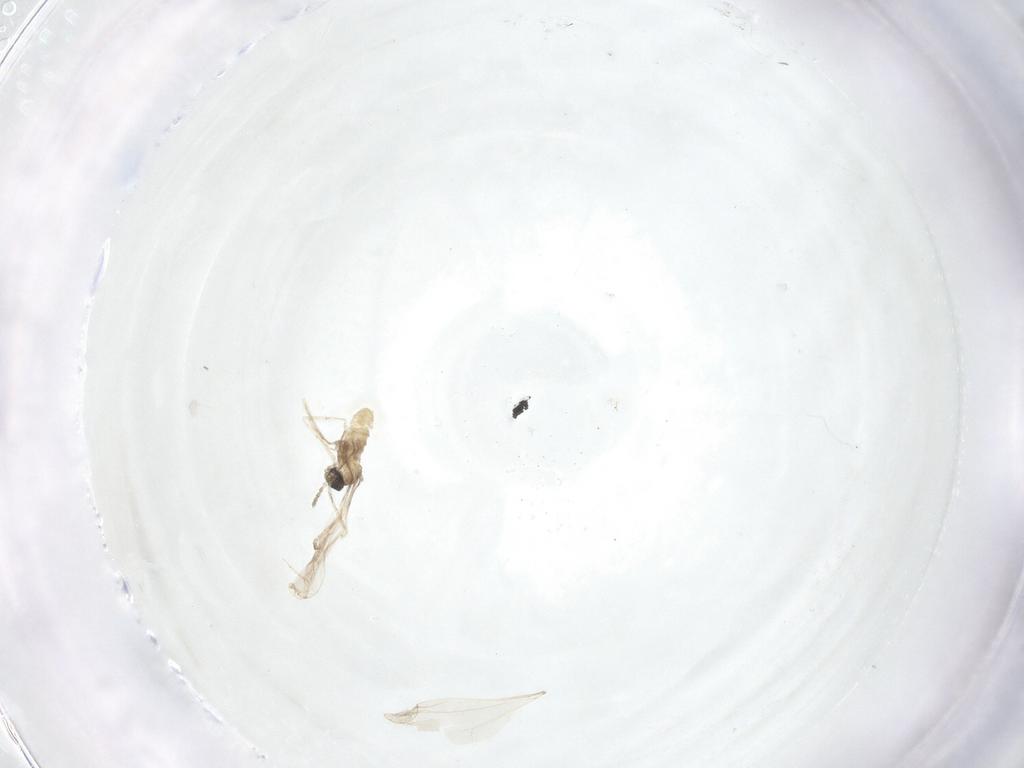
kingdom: Animalia
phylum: Arthropoda
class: Insecta
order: Diptera
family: Cecidomyiidae
